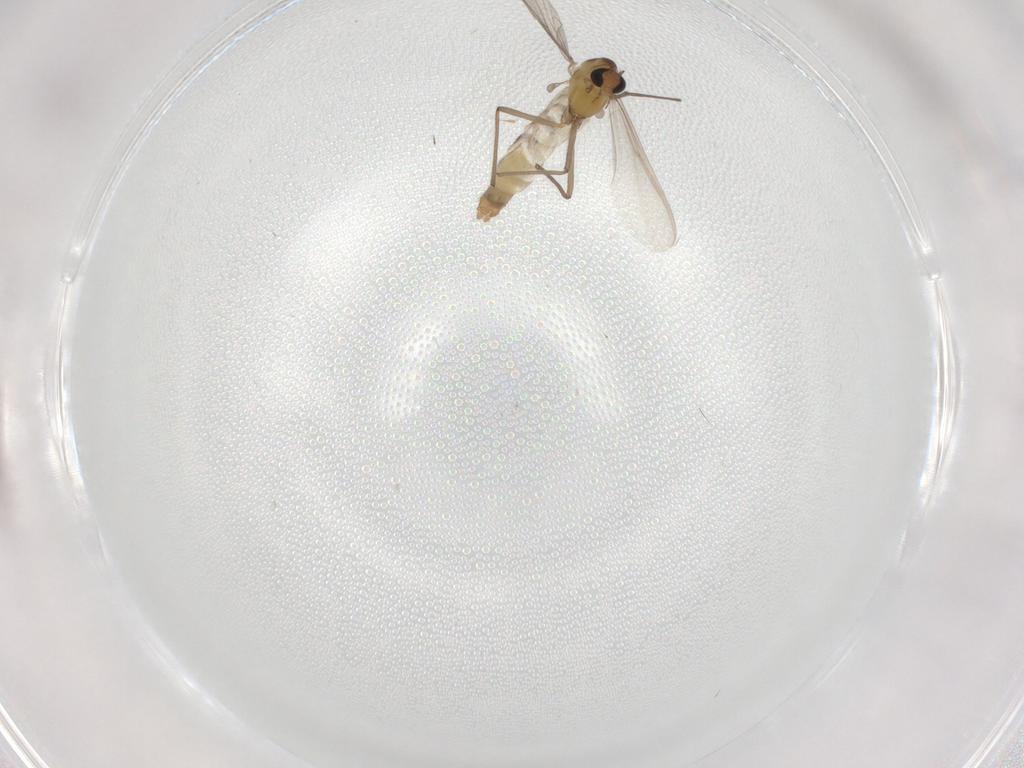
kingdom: Animalia
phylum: Arthropoda
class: Insecta
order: Diptera
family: Cecidomyiidae
